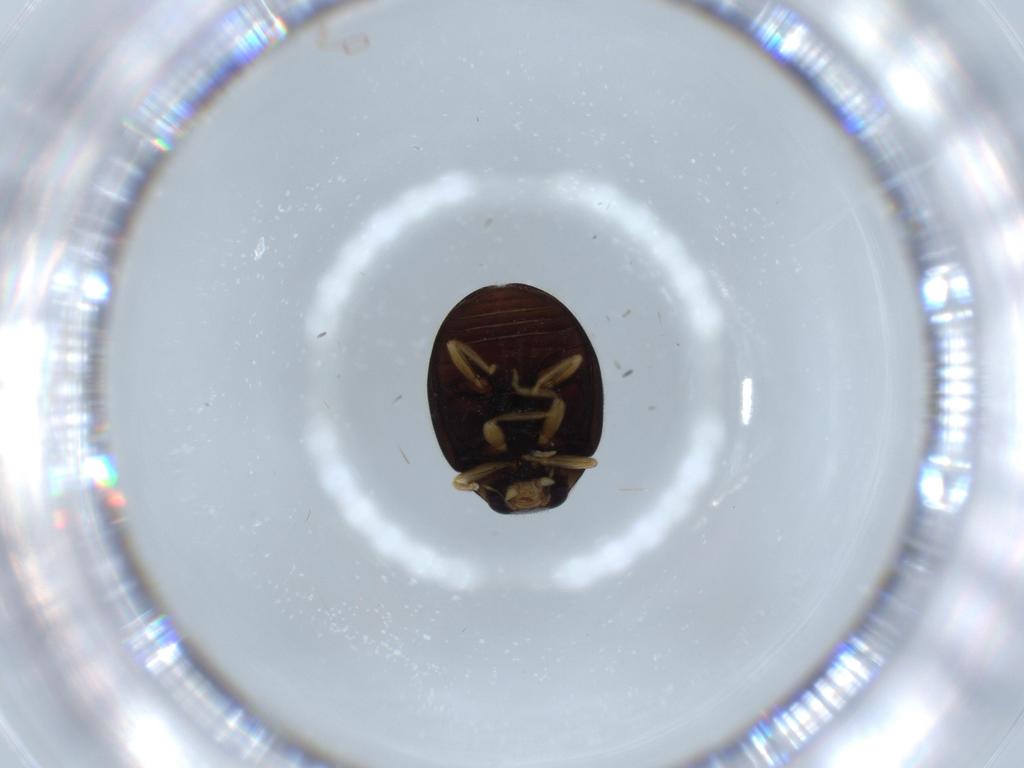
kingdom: Animalia
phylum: Arthropoda
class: Insecta
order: Coleoptera
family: Coccinellidae
